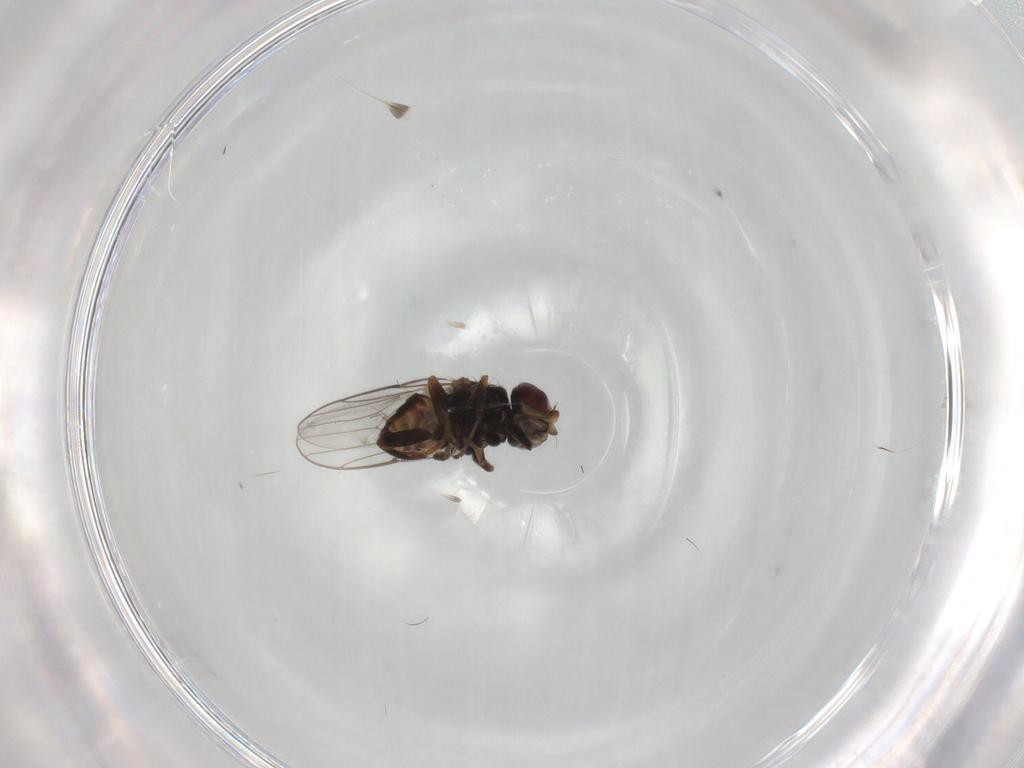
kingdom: Animalia
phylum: Arthropoda
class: Insecta
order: Diptera
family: Chloropidae
